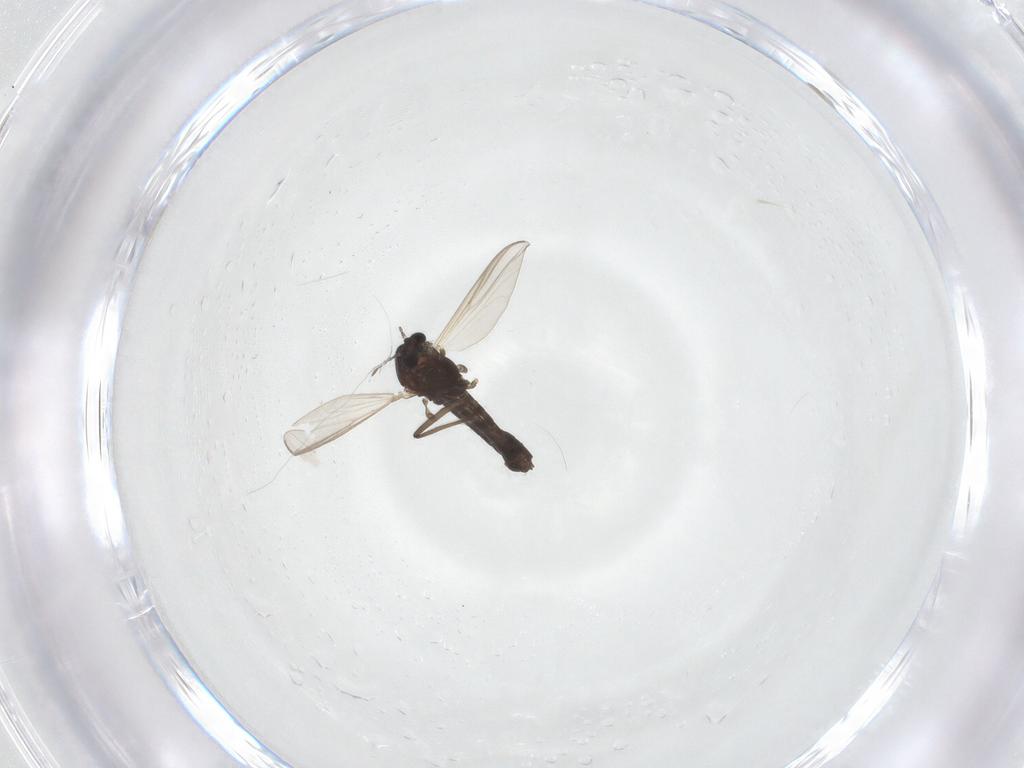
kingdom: Animalia
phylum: Arthropoda
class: Insecta
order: Diptera
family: Chironomidae
